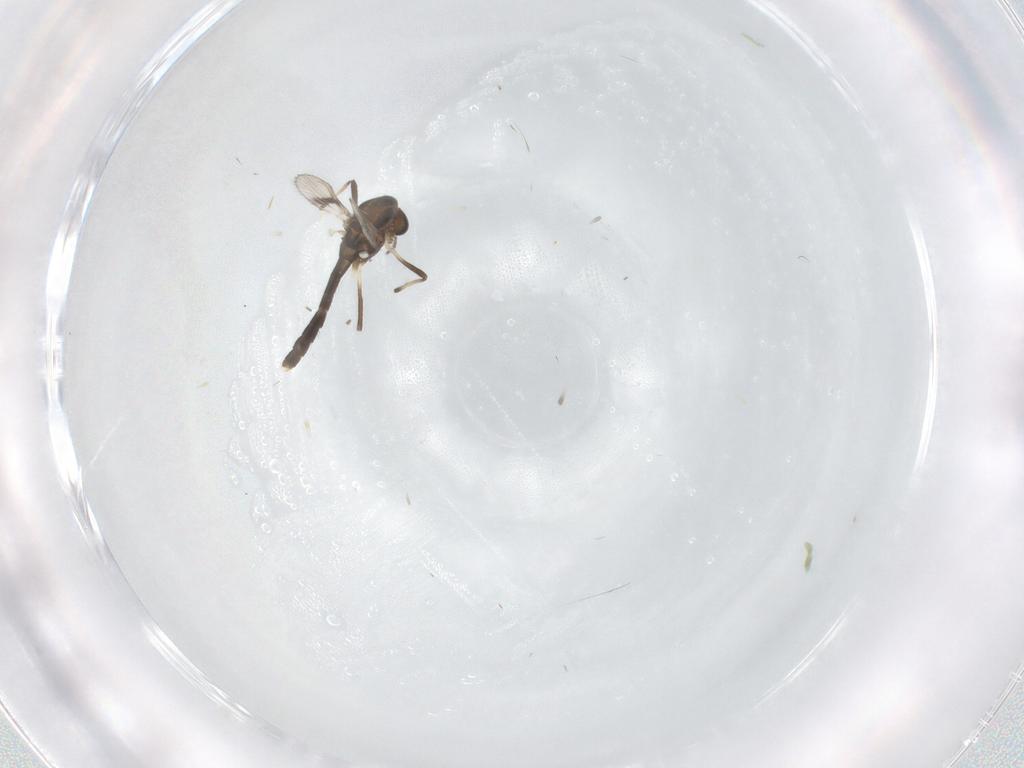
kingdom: Animalia
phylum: Arthropoda
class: Insecta
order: Diptera
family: Chironomidae
